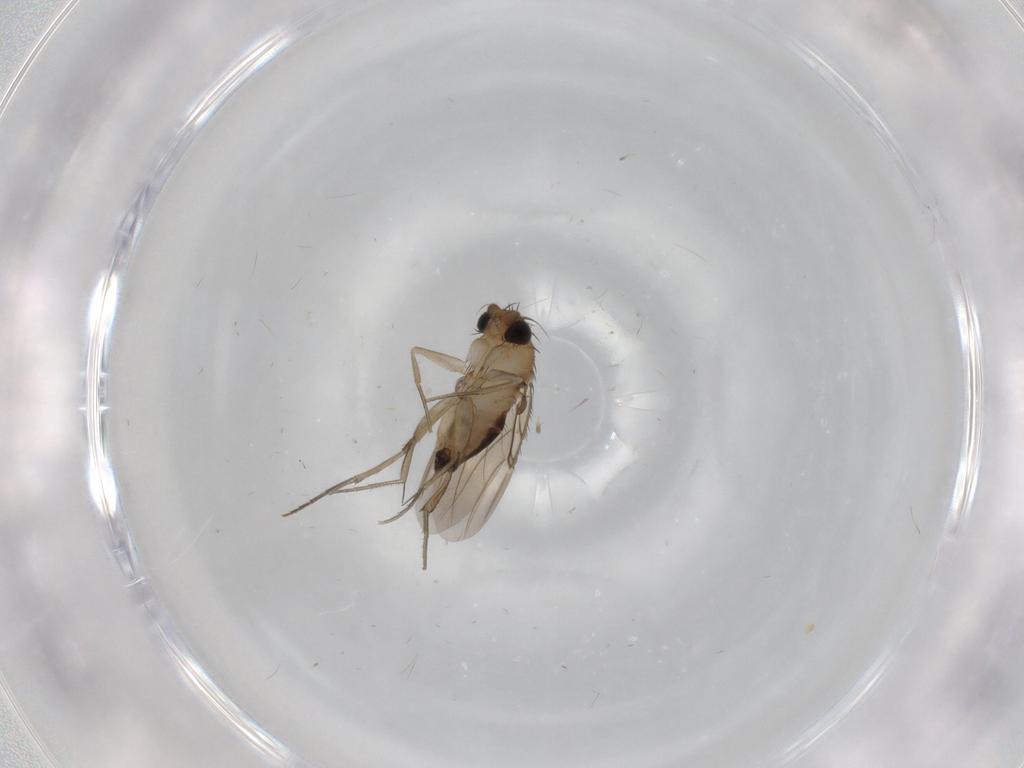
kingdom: Animalia
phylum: Arthropoda
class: Insecta
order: Diptera
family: Phoridae
